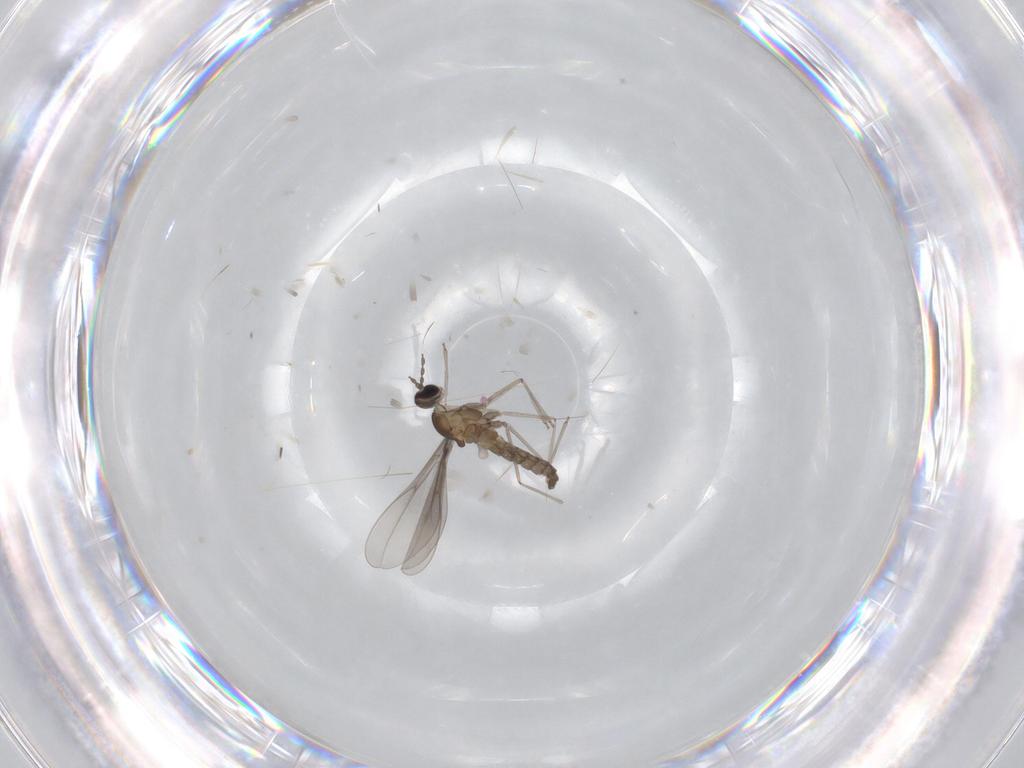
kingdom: Animalia
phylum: Arthropoda
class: Insecta
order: Diptera
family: Cecidomyiidae
